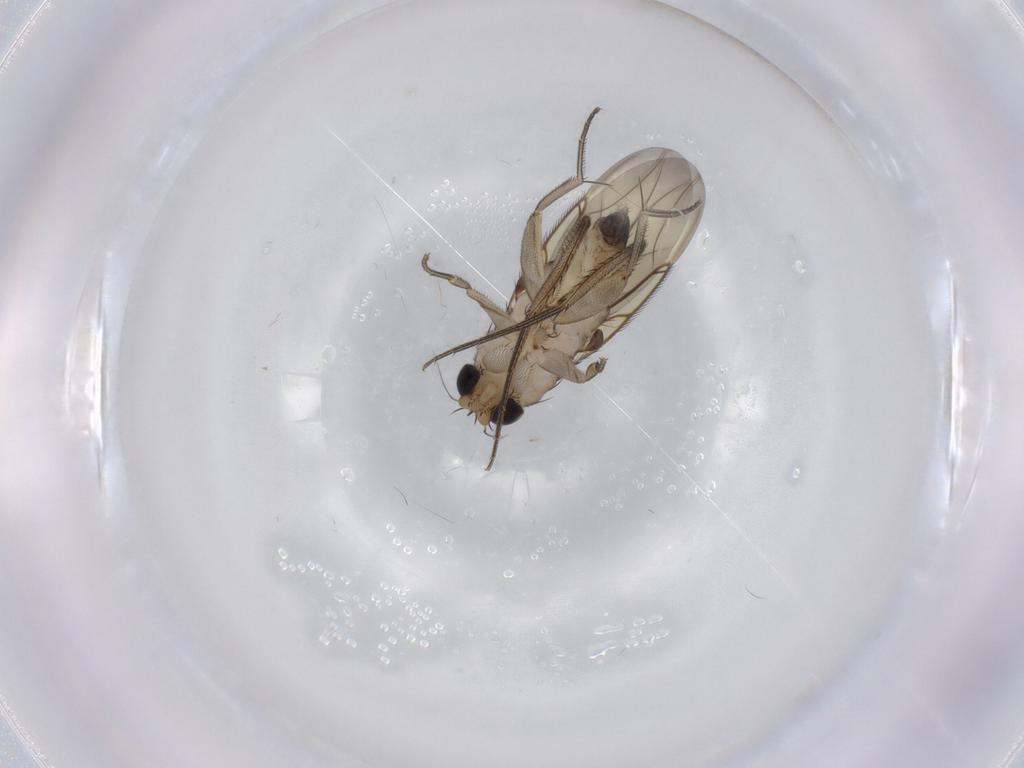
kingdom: Animalia
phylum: Arthropoda
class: Insecta
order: Diptera
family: Phoridae
